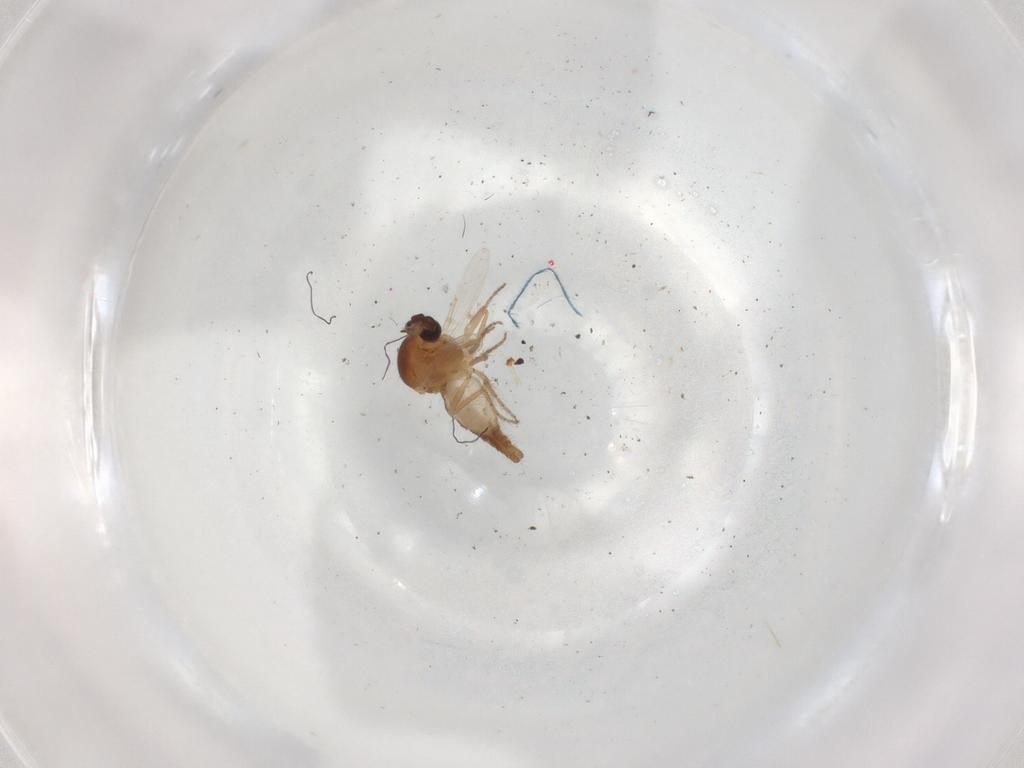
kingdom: Animalia
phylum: Arthropoda
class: Insecta
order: Diptera
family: Ceratopogonidae
